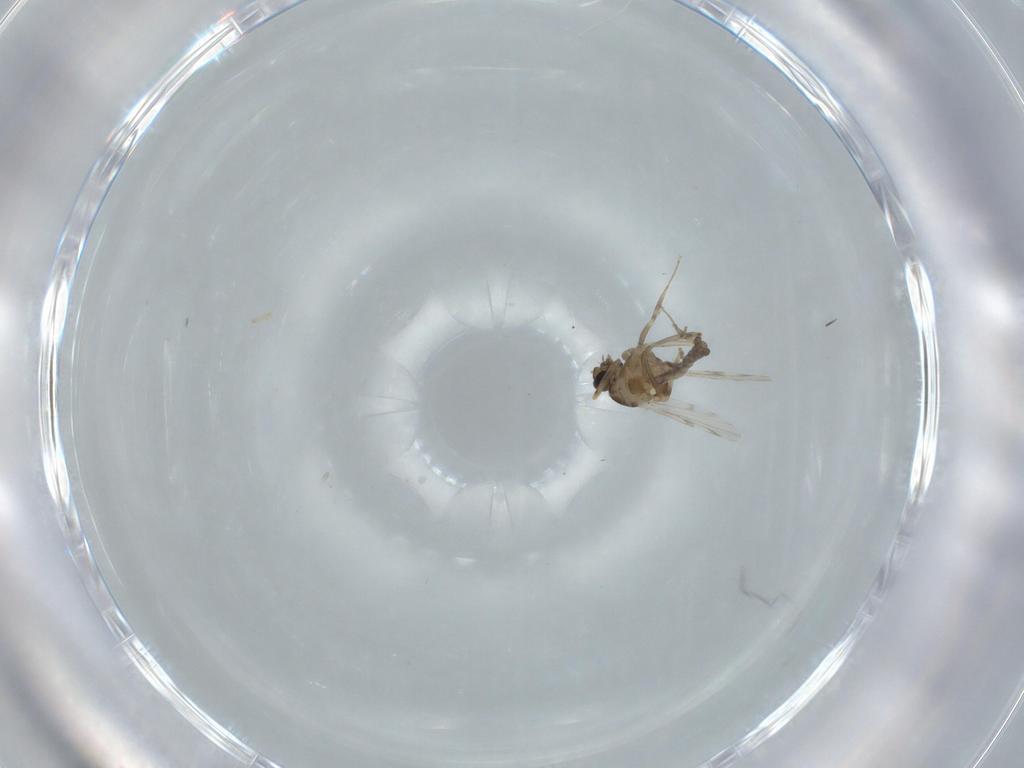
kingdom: Animalia
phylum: Arthropoda
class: Insecta
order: Diptera
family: Ceratopogonidae
